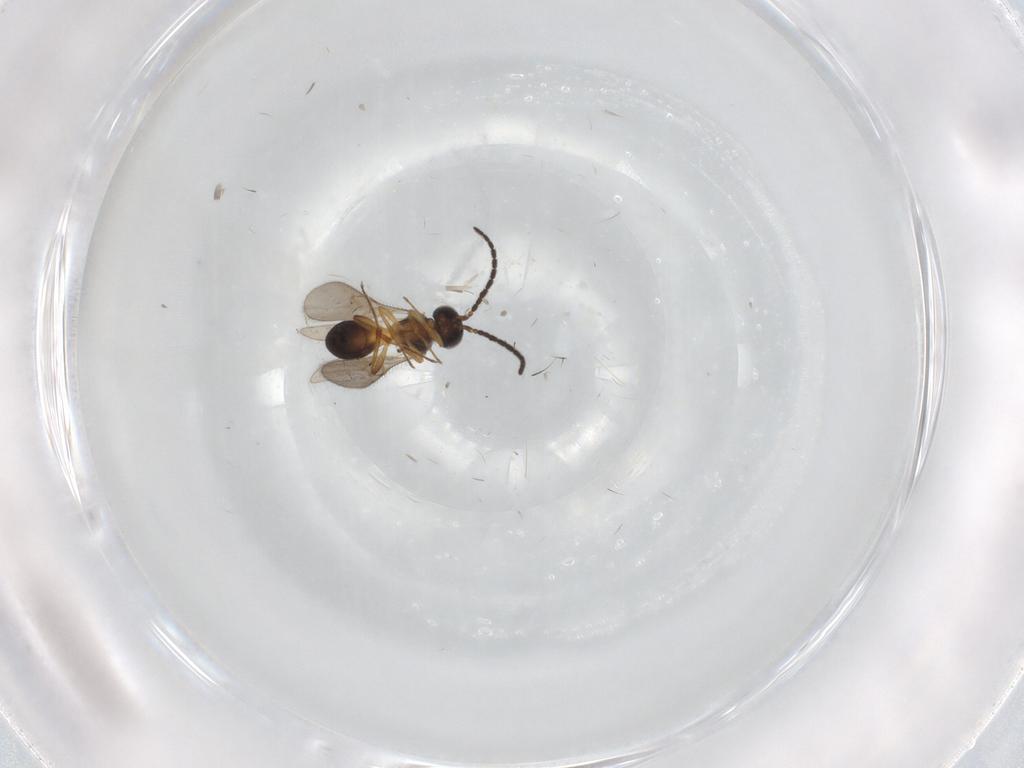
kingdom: Animalia
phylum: Arthropoda
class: Insecta
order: Hymenoptera
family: Scelionidae
